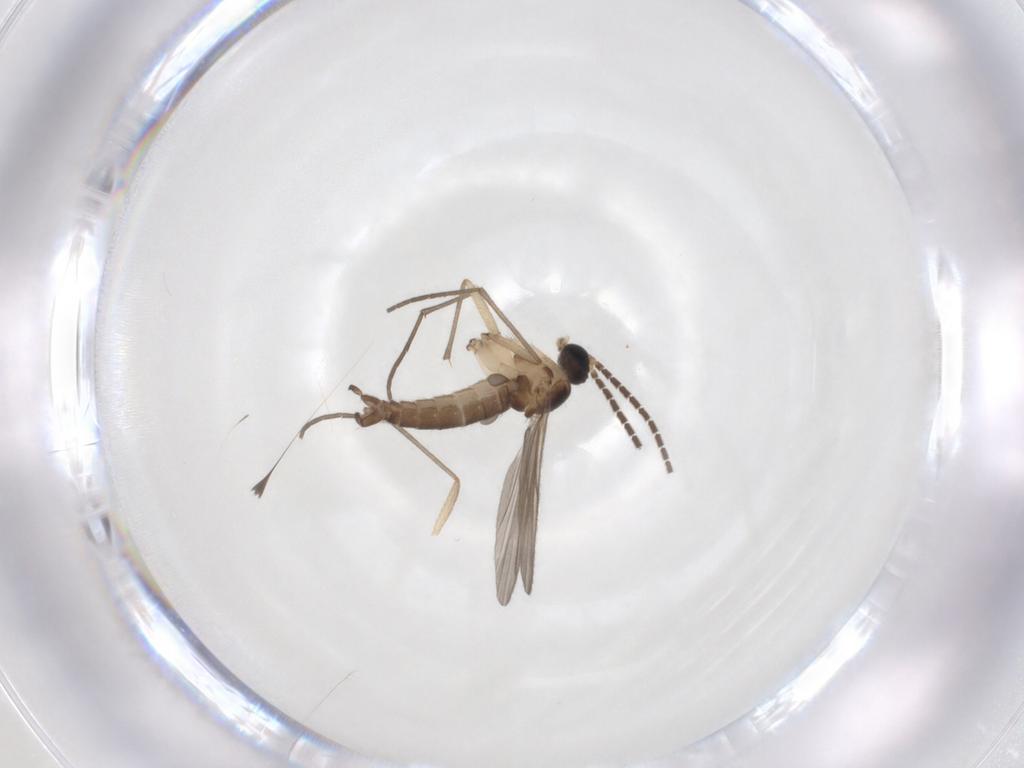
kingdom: Animalia
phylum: Arthropoda
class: Insecta
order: Diptera
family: Sciaridae
